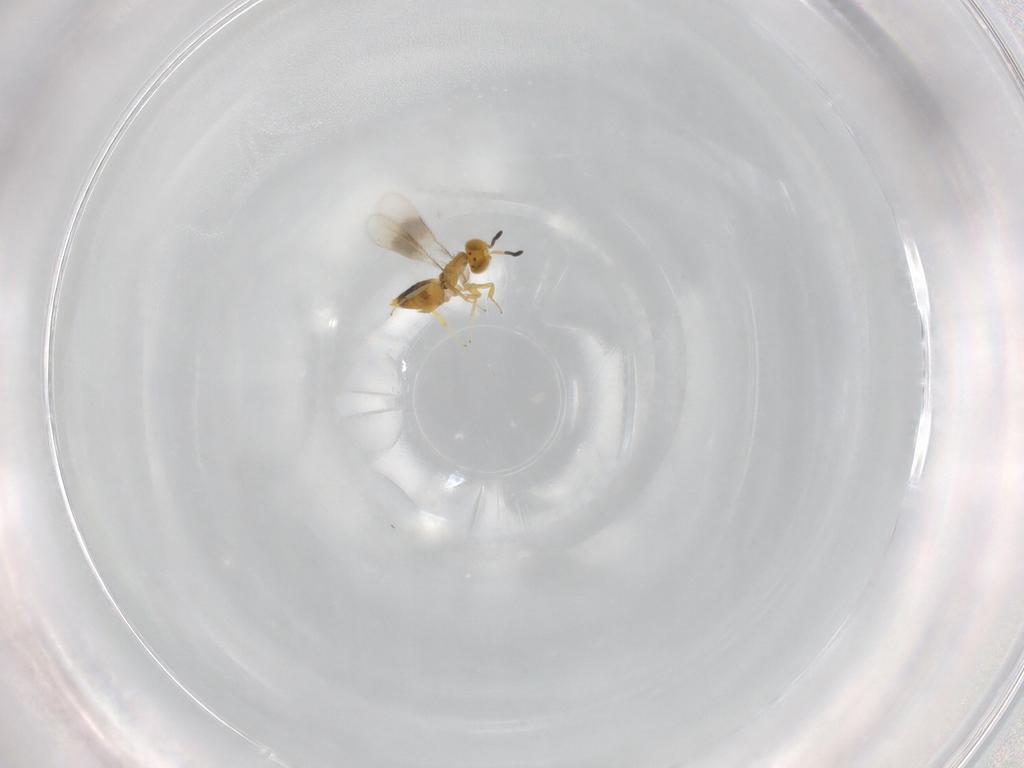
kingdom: Animalia
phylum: Arthropoda
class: Insecta
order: Hymenoptera
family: Encyrtidae
